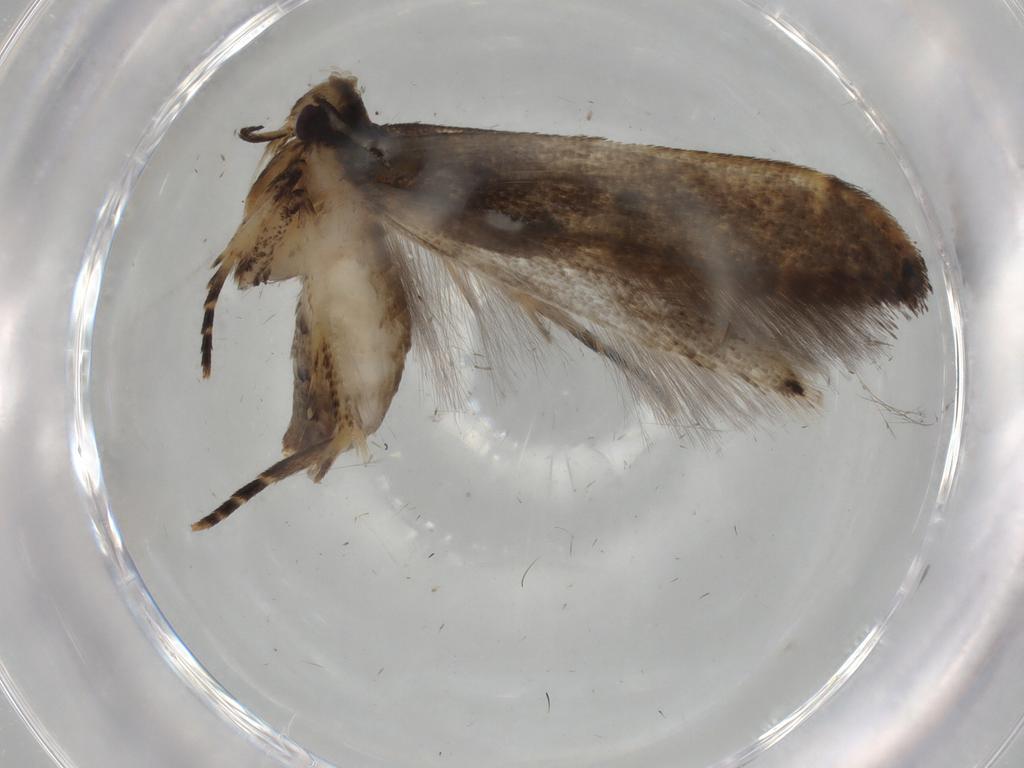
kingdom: Animalia
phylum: Arthropoda
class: Insecta
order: Lepidoptera
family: Cosmopterigidae
